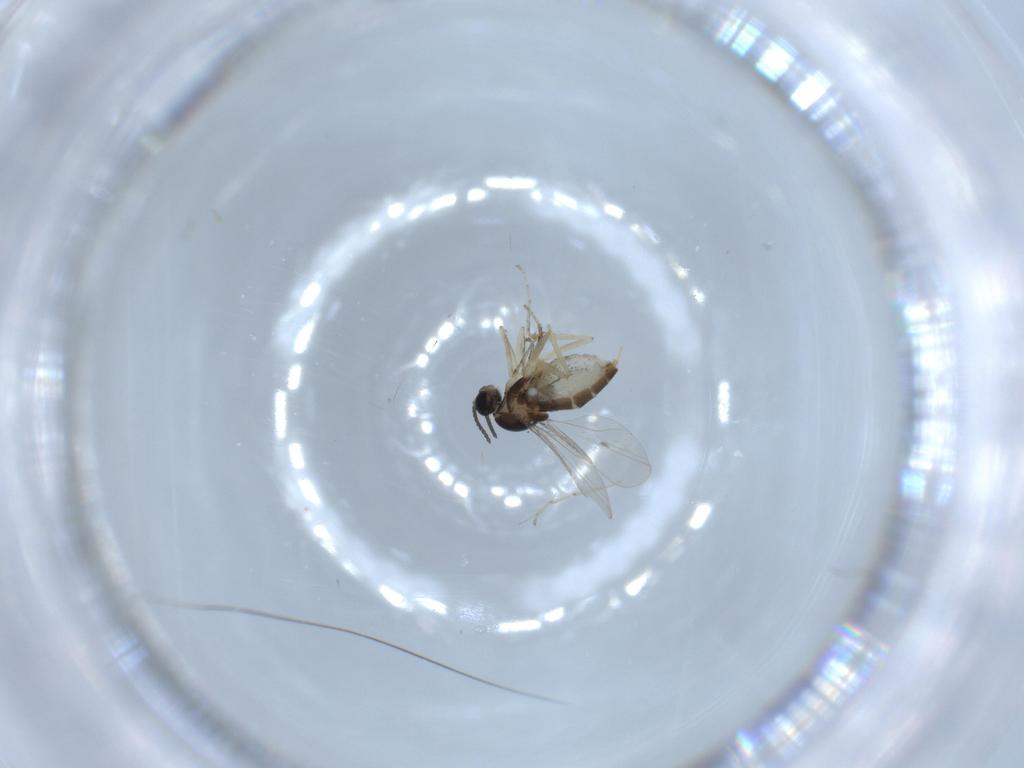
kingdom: Animalia
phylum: Arthropoda
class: Insecta
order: Diptera
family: Cecidomyiidae
